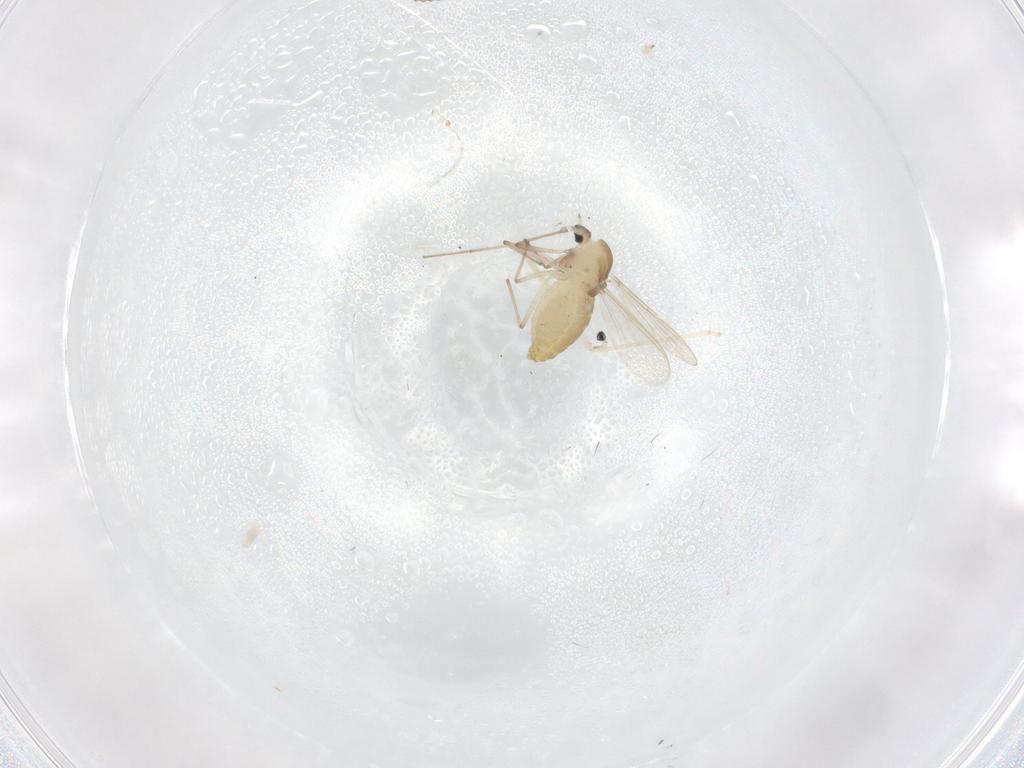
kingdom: Animalia
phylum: Arthropoda
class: Insecta
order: Diptera
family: Chironomidae
